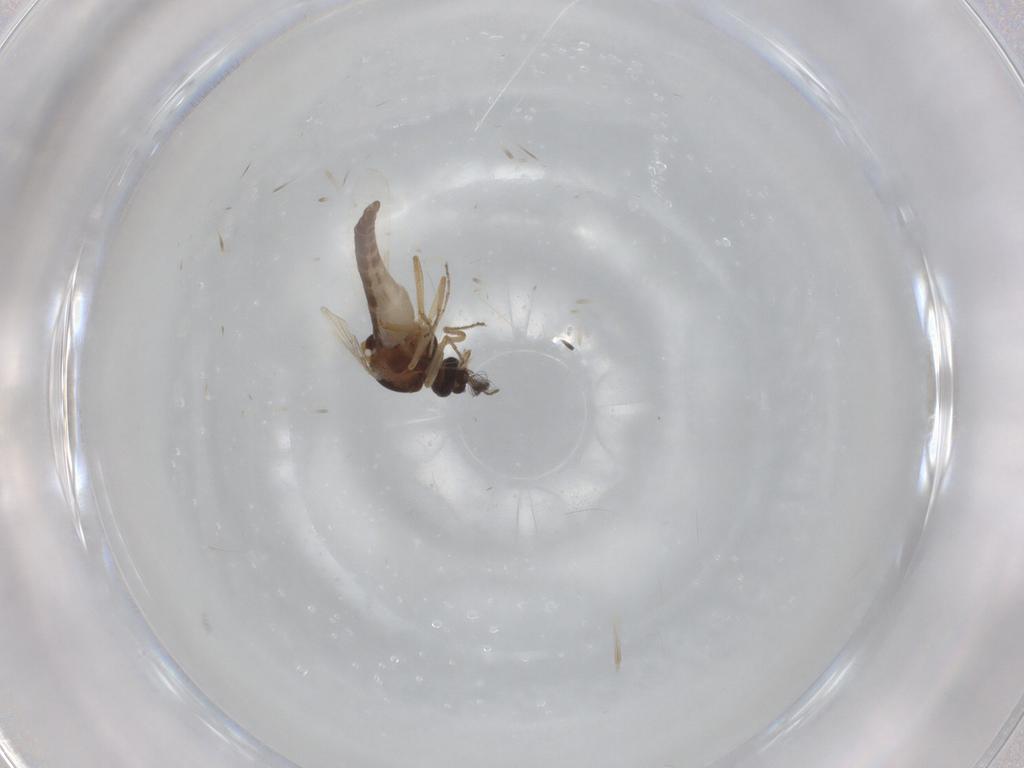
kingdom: Animalia
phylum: Arthropoda
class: Insecta
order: Diptera
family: Ceratopogonidae
